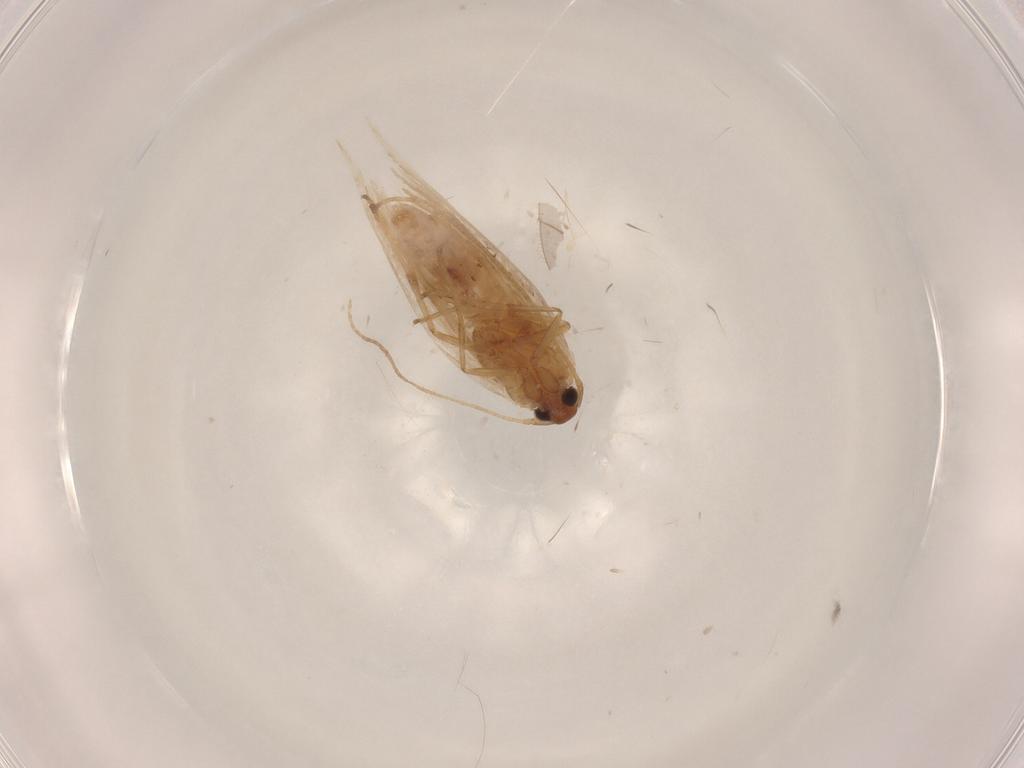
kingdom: Animalia
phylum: Arthropoda
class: Insecta
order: Lepidoptera
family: Gelechiidae
